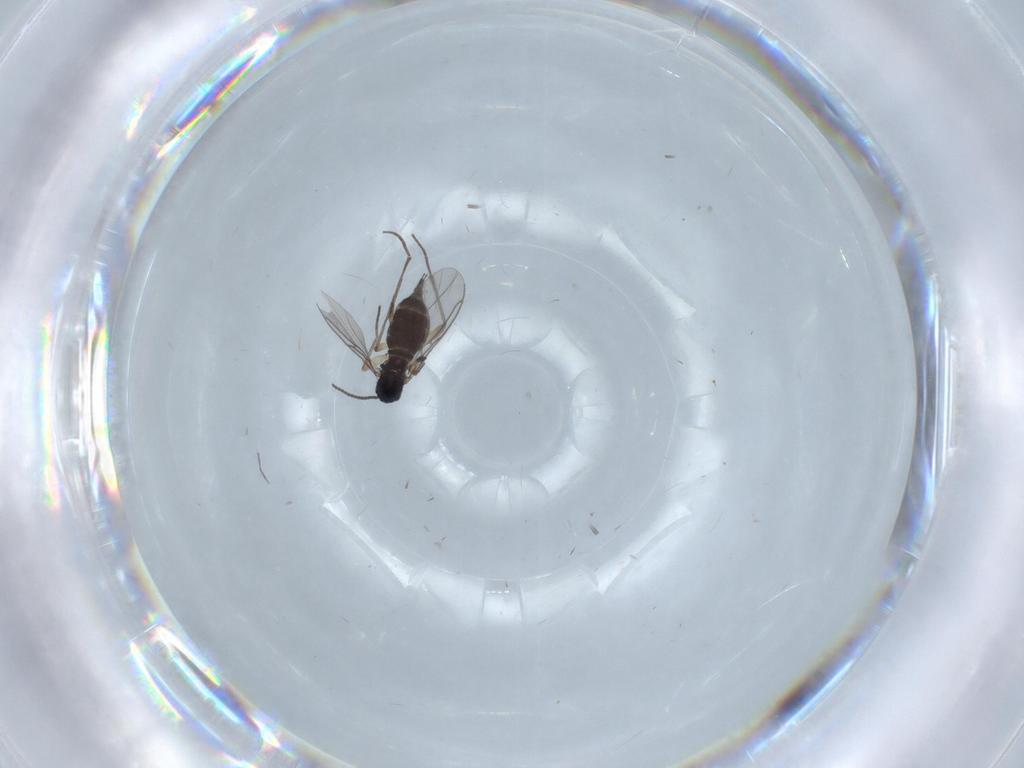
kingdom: Animalia
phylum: Arthropoda
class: Insecta
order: Diptera
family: Sciaridae
